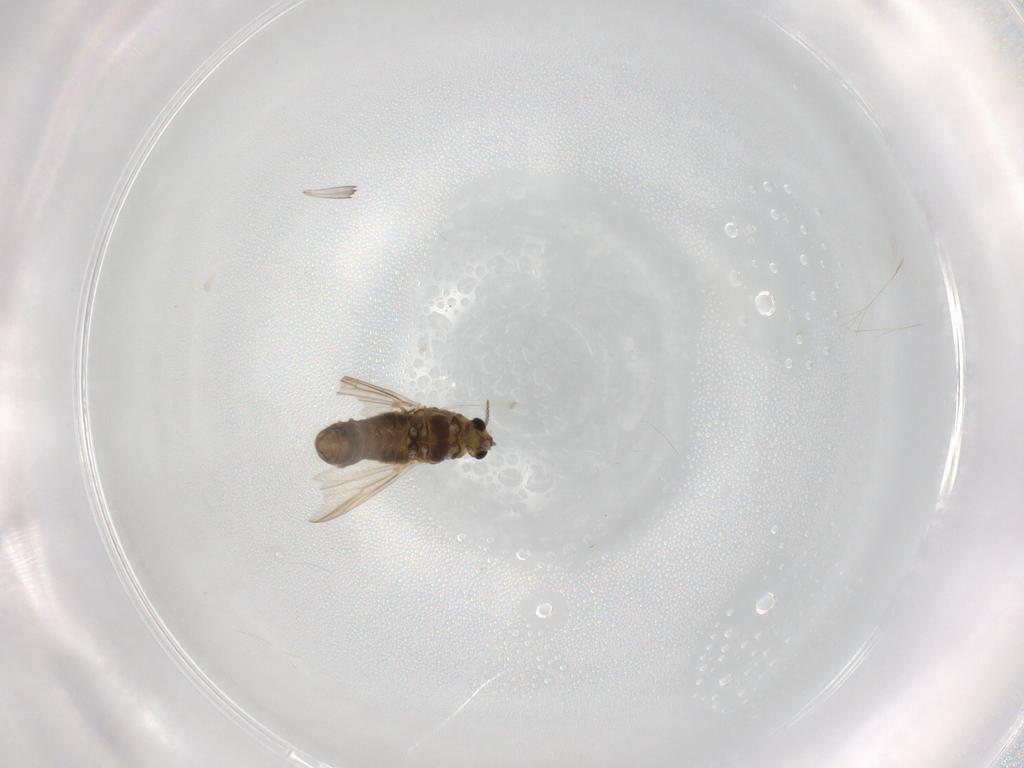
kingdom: Animalia
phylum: Arthropoda
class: Insecta
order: Diptera
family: Chironomidae
